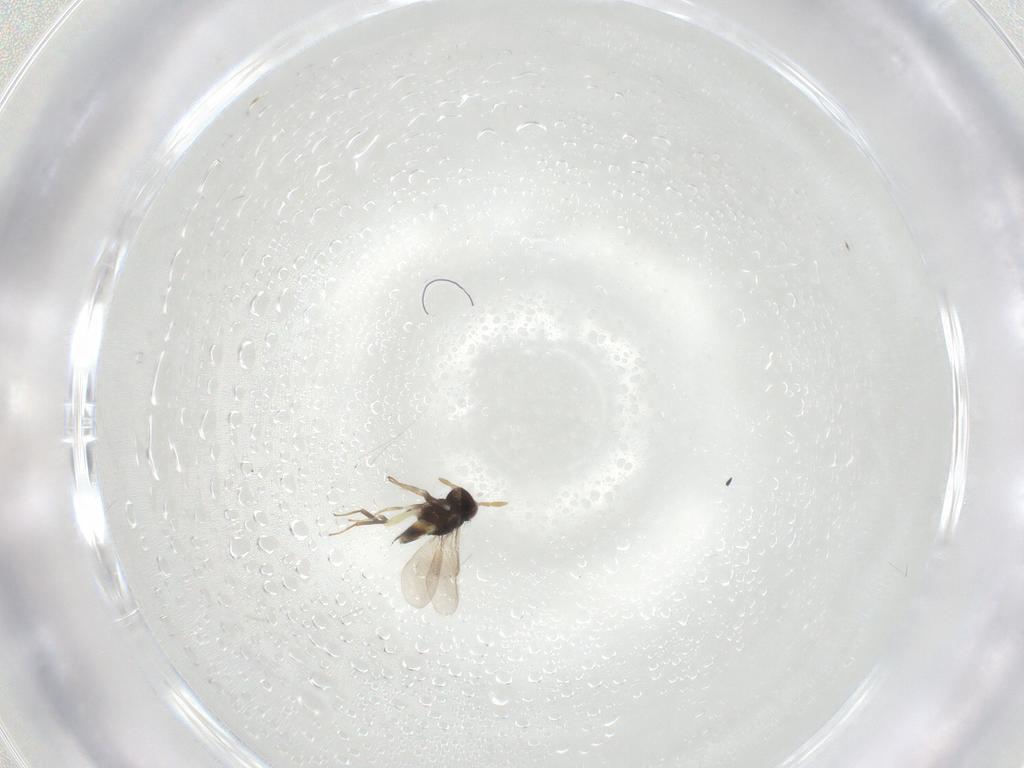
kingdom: Animalia
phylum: Arthropoda
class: Insecta
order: Hymenoptera
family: Aphelinidae
